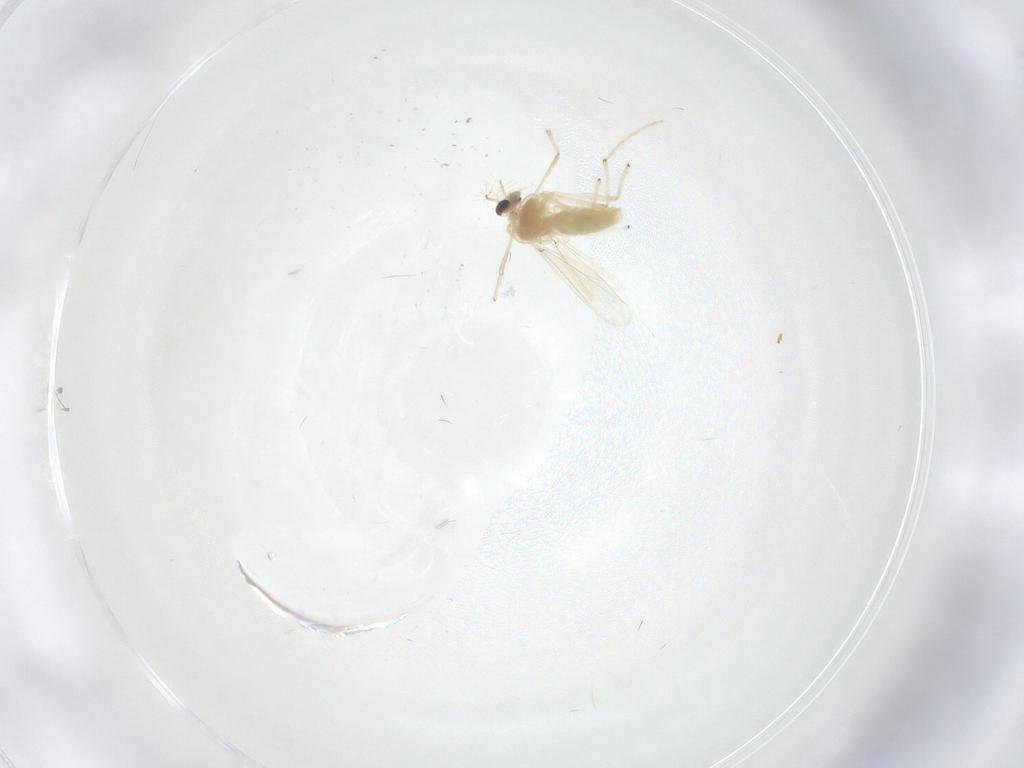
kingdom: Animalia
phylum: Arthropoda
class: Insecta
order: Diptera
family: Chironomidae
